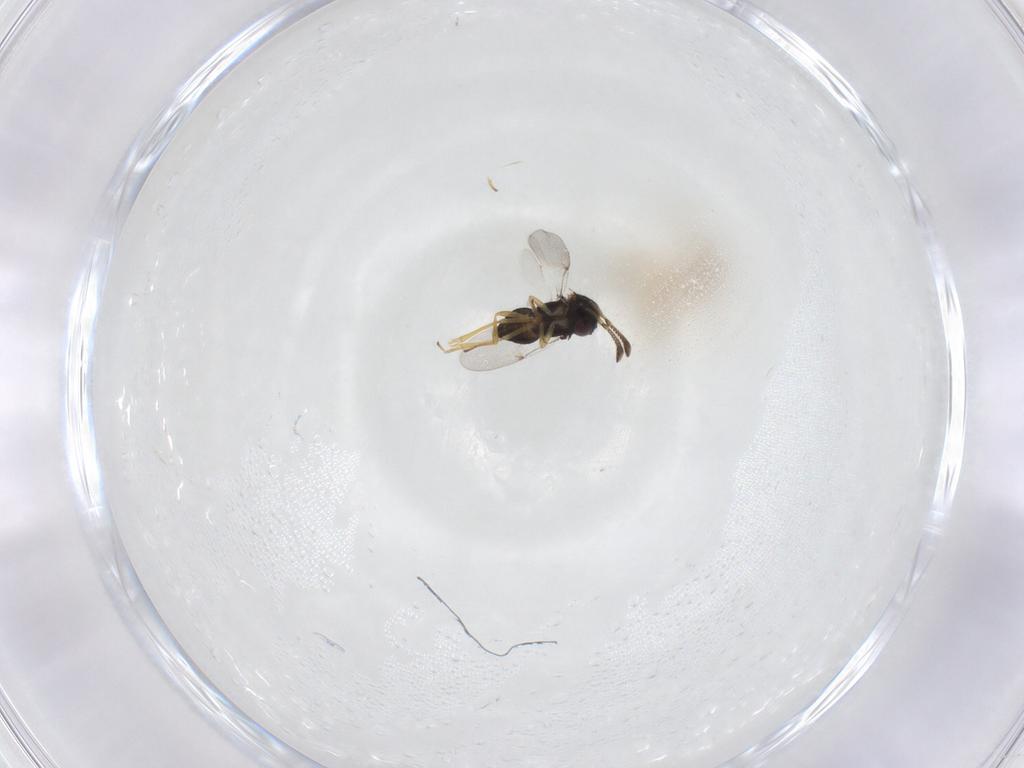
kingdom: Animalia
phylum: Arthropoda
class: Insecta
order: Hymenoptera
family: Encyrtidae
